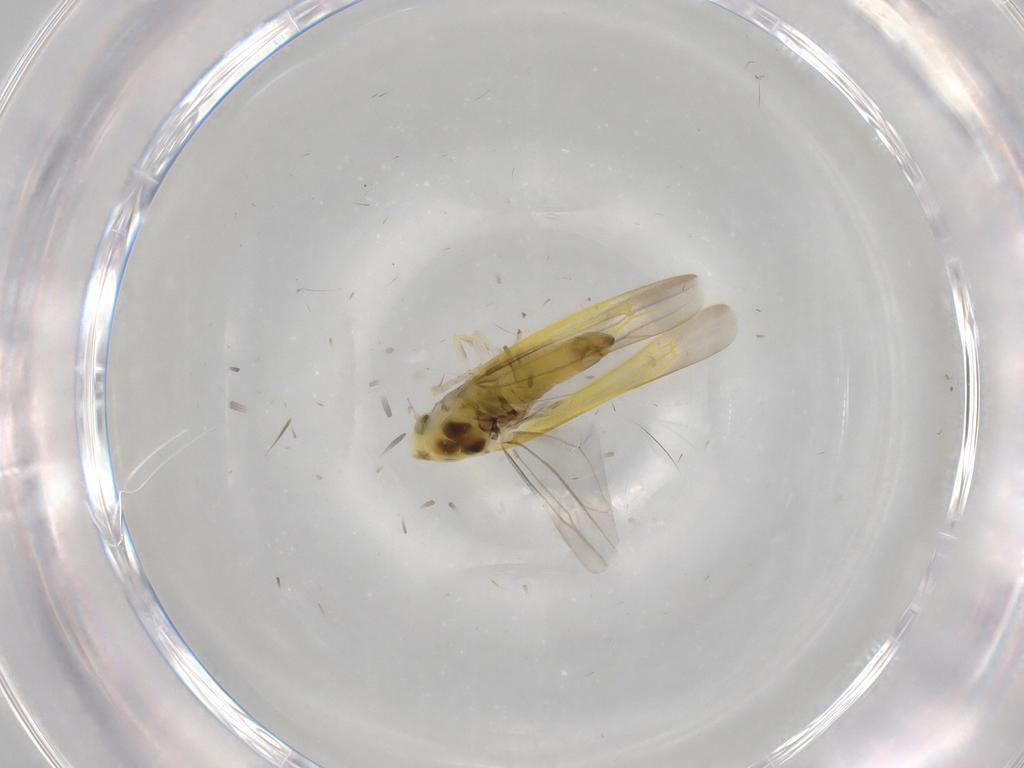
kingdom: Animalia
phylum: Arthropoda
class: Insecta
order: Hemiptera
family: Cicadellidae
